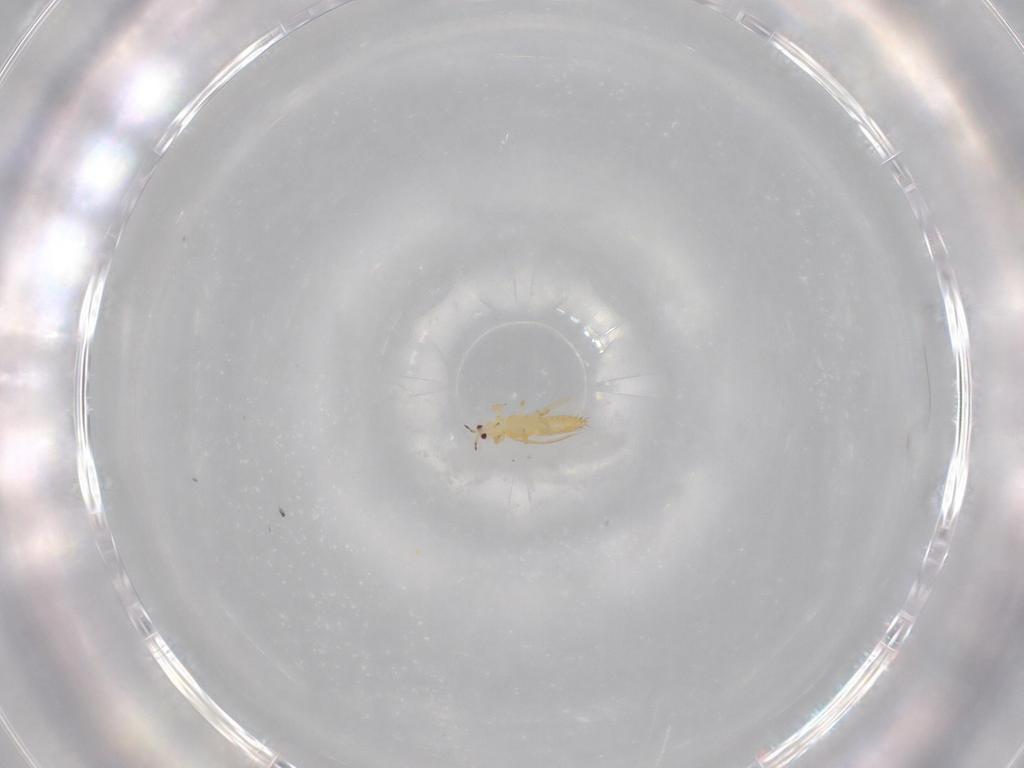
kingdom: Animalia
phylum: Arthropoda
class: Insecta
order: Thysanoptera
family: Thripidae
